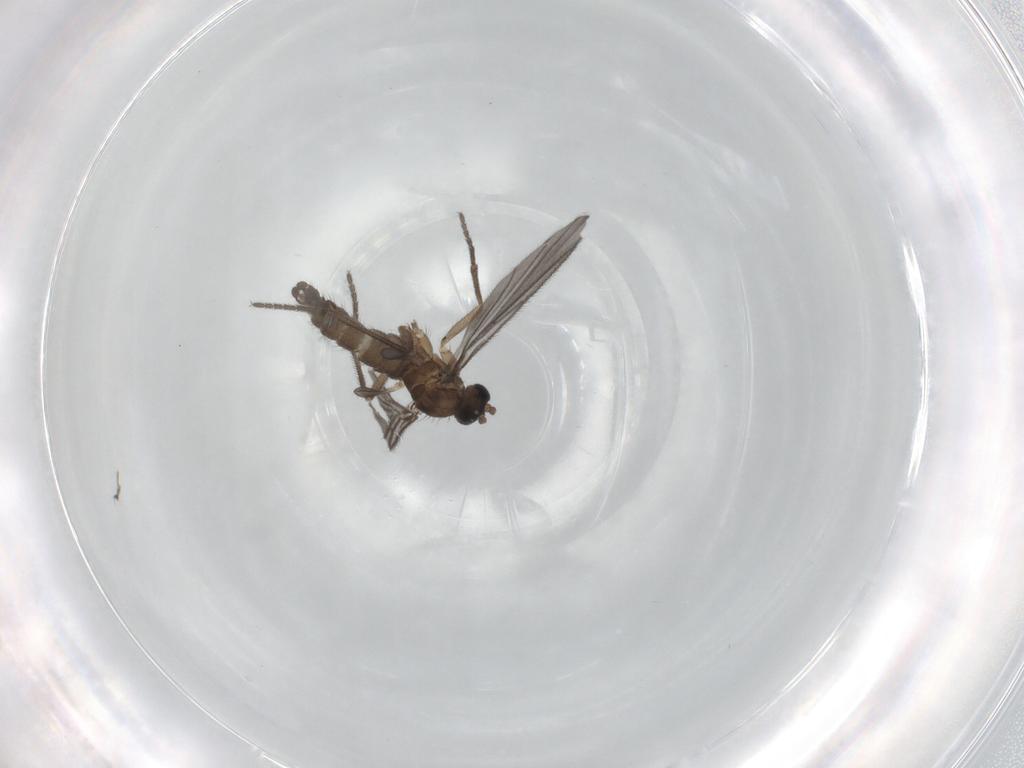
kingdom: Animalia
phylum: Arthropoda
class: Insecta
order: Diptera
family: Sciaridae
